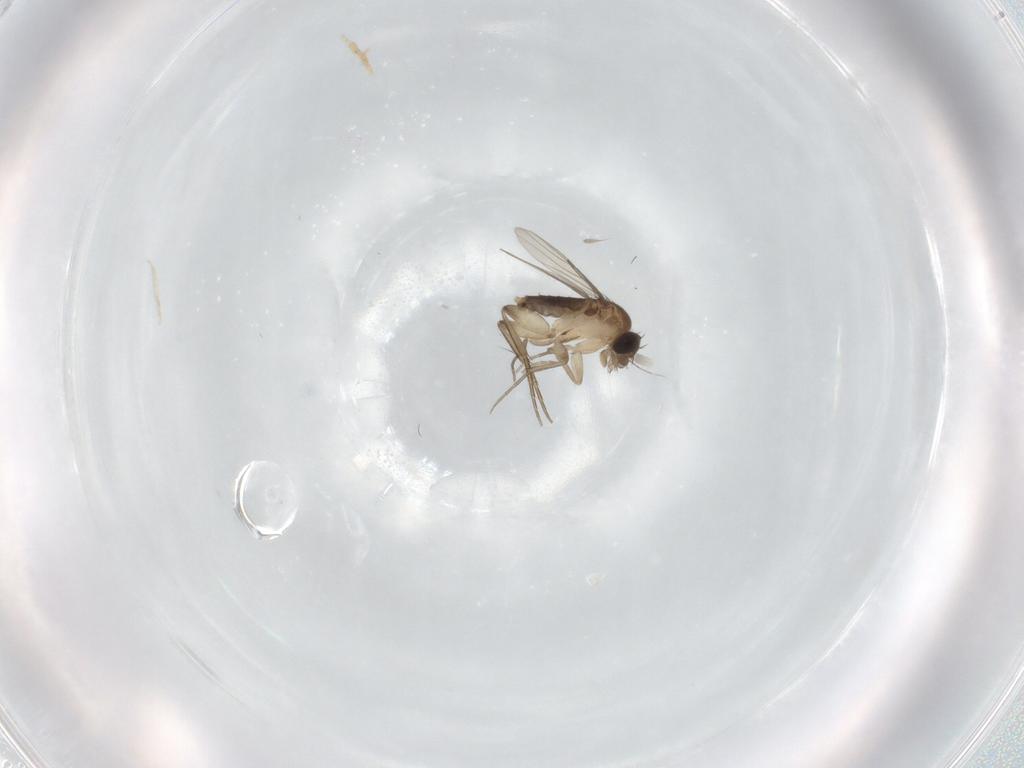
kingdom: Animalia
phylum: Arthropoda
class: Insecta
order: Diptera
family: Phoridae
